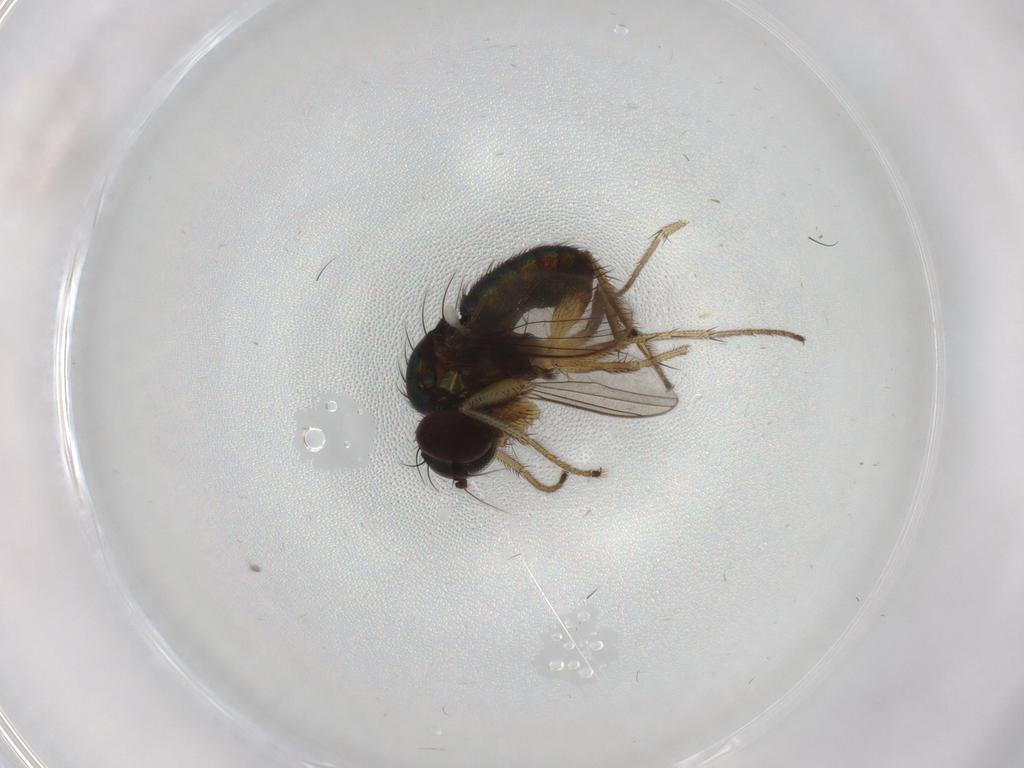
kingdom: Animalia
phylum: Arthropoda
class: Insecta
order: Diptera
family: Dolichopodidae
